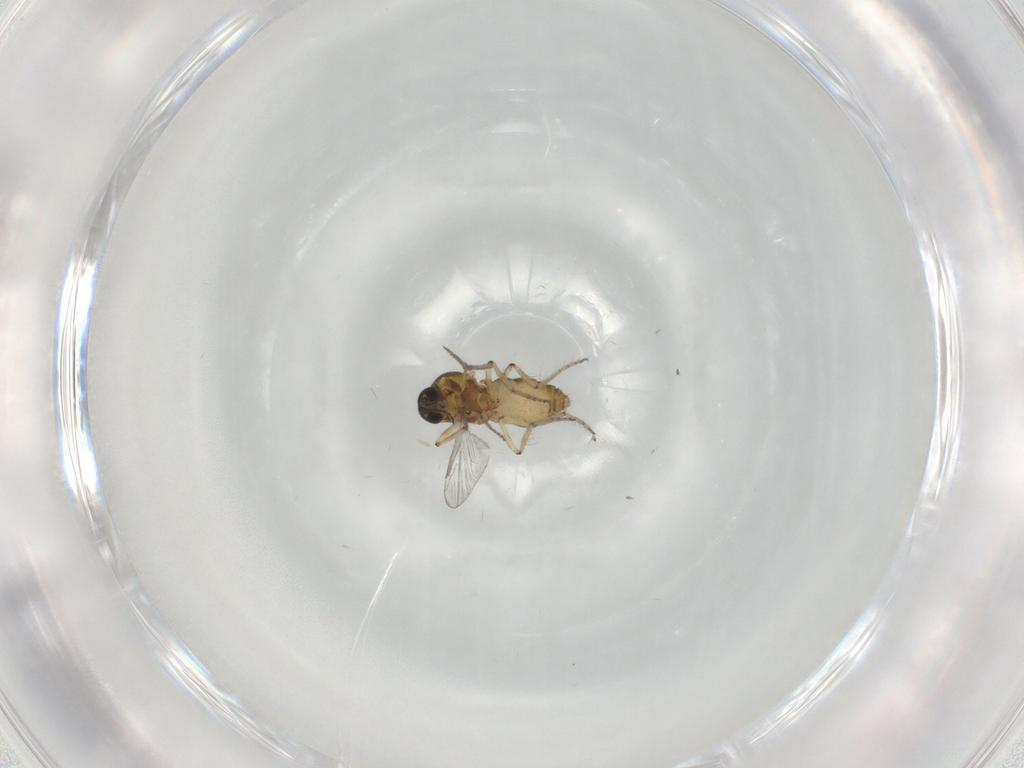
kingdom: Animalia
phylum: Arthropoda
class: Insecta
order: Diptera
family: Ceratopogonidae
